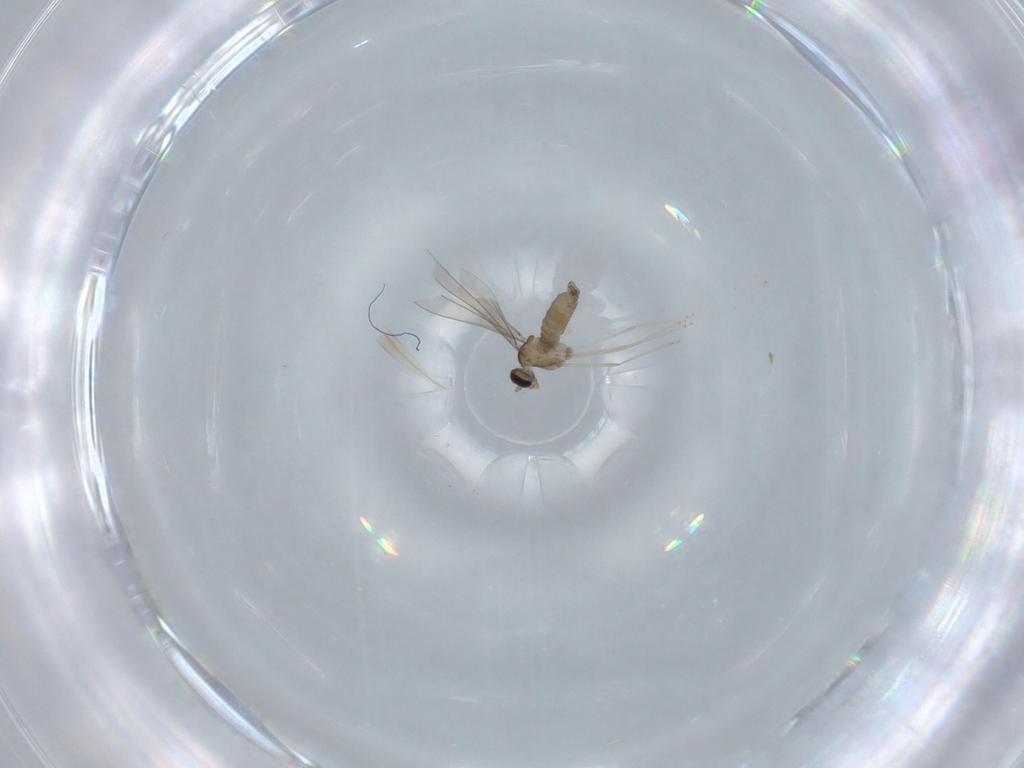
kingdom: Animalia
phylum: Arthropoda
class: Insecta
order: Diptera
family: Cecidomyiidae
